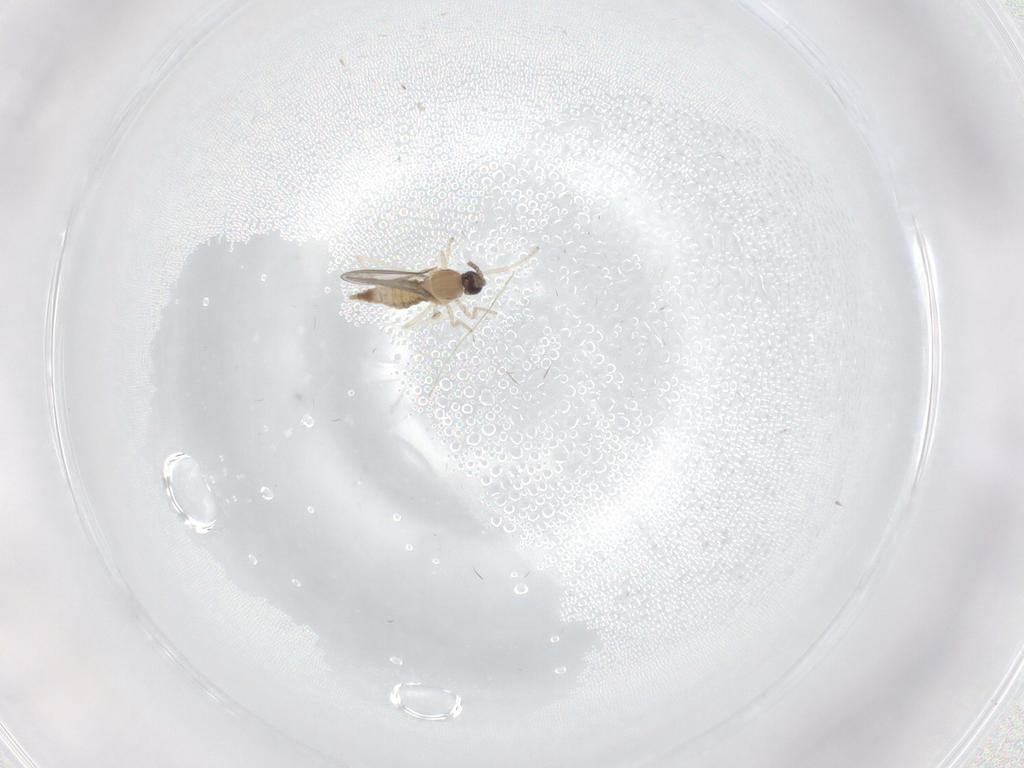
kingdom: Animalia
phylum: Arthropoda
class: Insecta
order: Diptera
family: Cecidomyiidae
